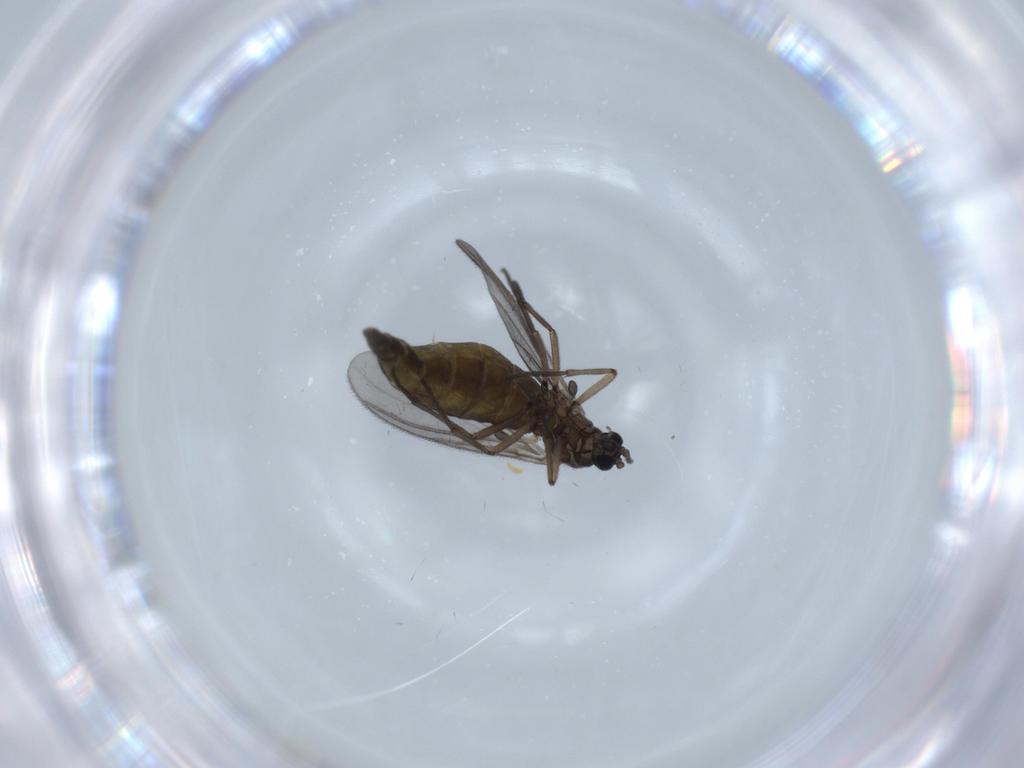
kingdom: Animalia
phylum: Arthropoda
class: Insecta
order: Diptera
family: Sciaridae
